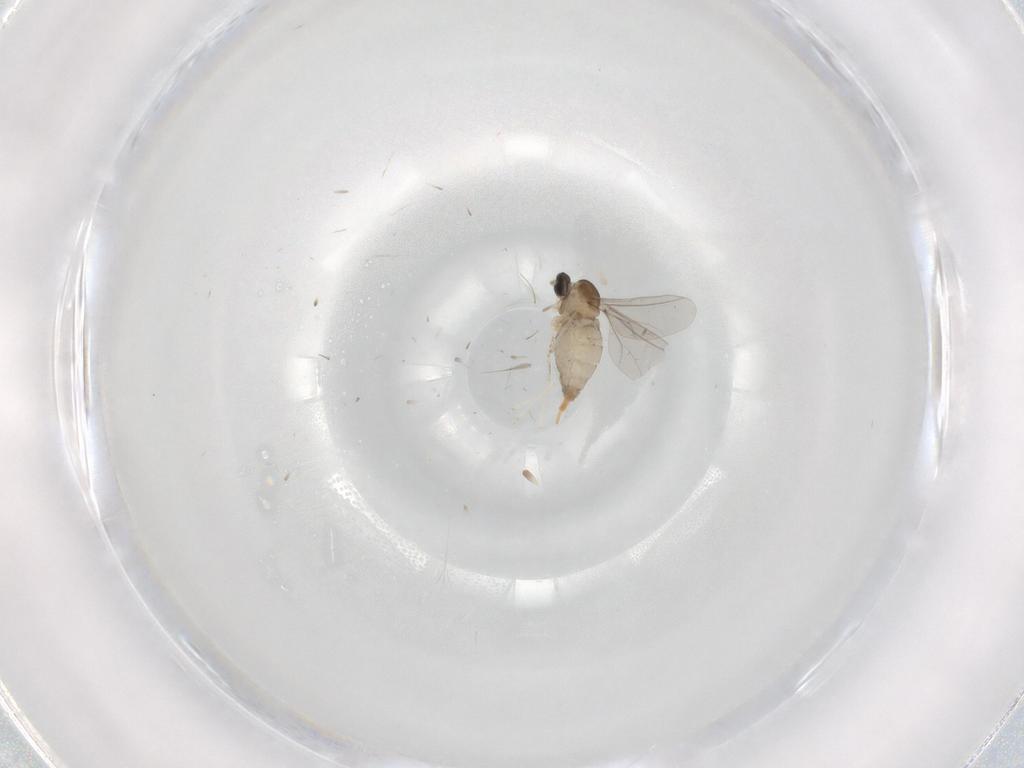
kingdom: Animalia
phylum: Arthropoda
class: Insecta
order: Diptera
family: Cecidomyiidae
